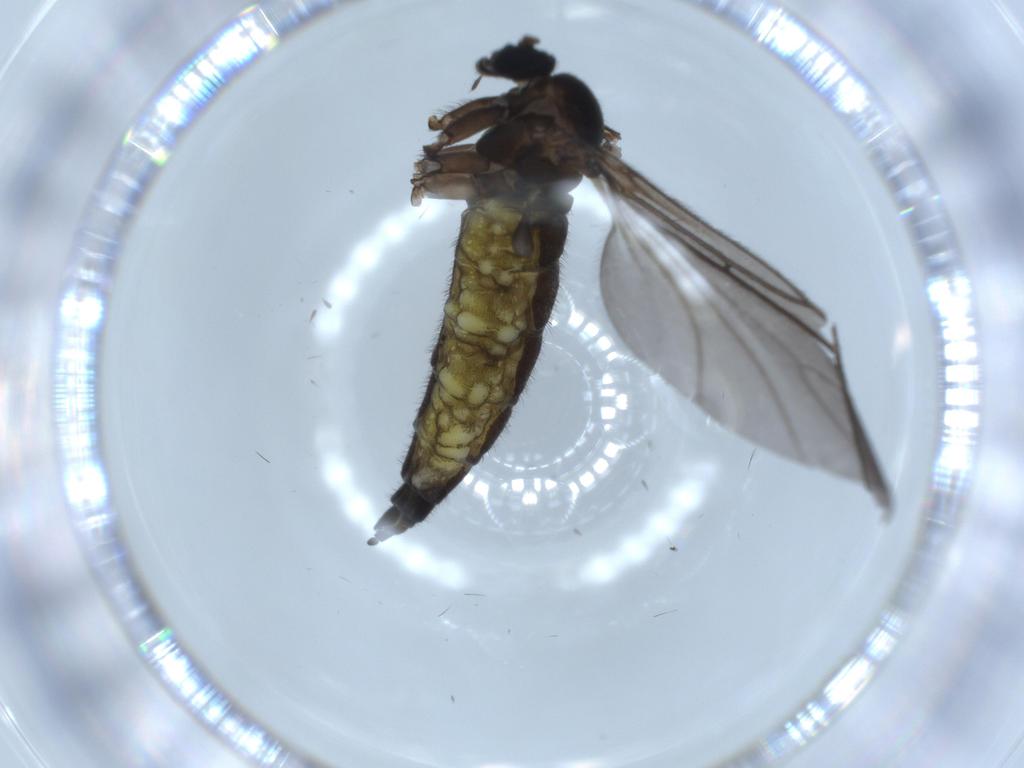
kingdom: Animalia
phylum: Arthropoda
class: Insecta
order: Diptera
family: Sciaridae
